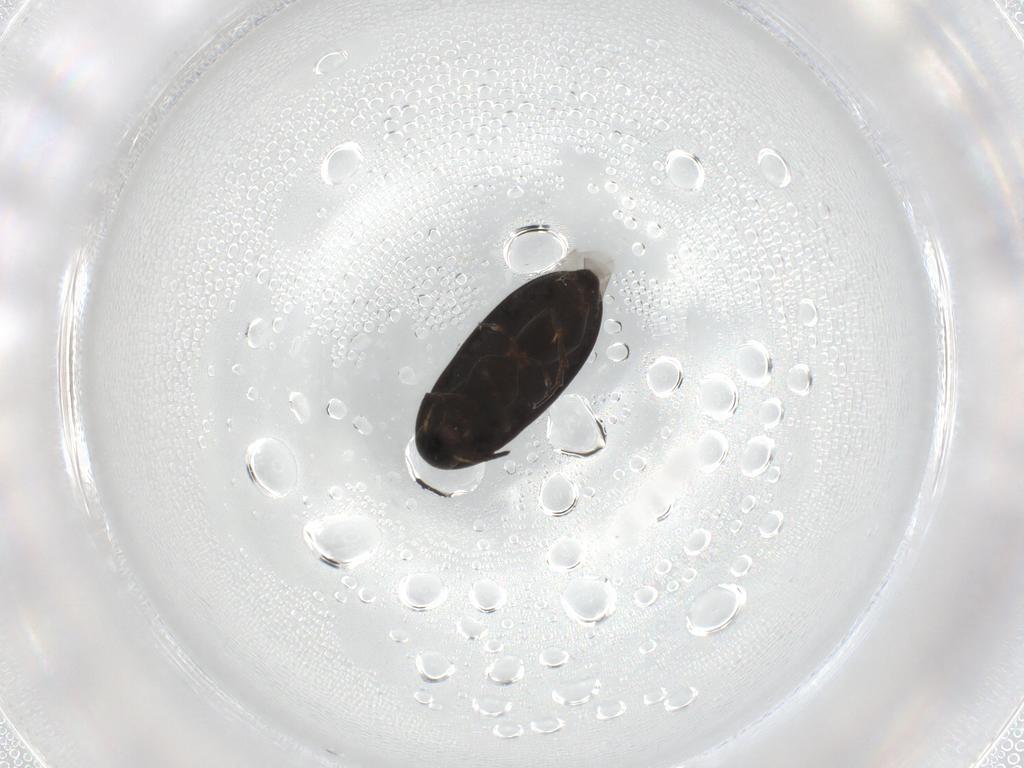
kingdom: Animalia
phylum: Arthropoda
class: Insecta
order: Coleoptera
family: Scraptiidae
